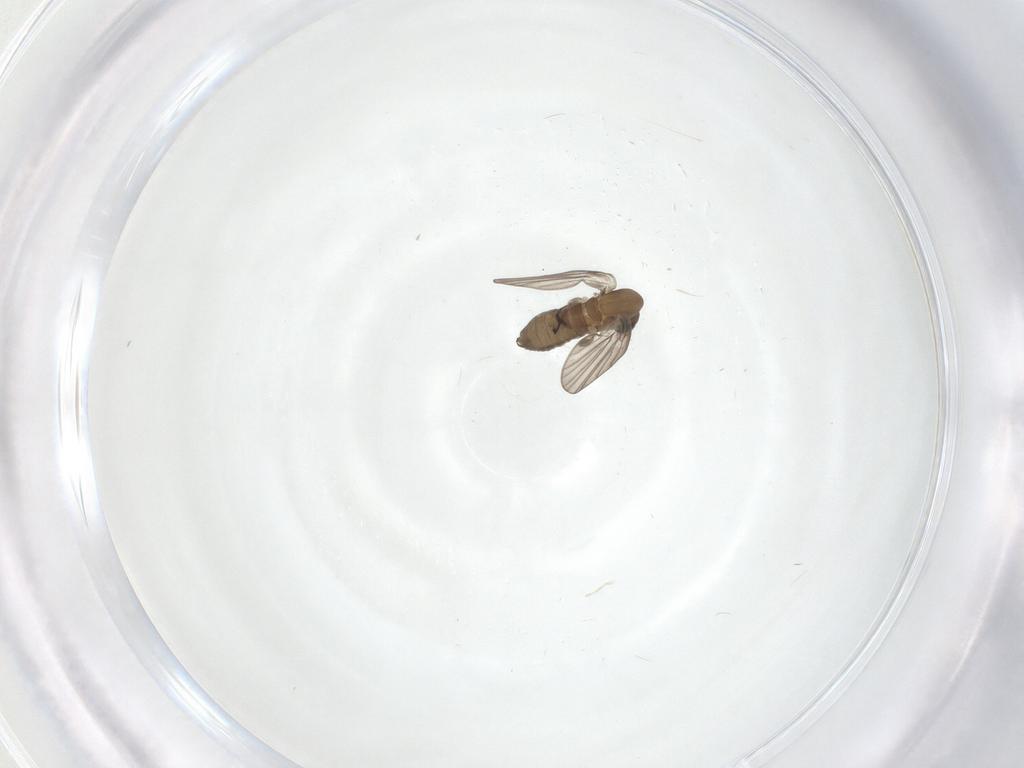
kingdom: Animalia
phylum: Arthropoda
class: Insecta
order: Diptera
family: Psychodidae
